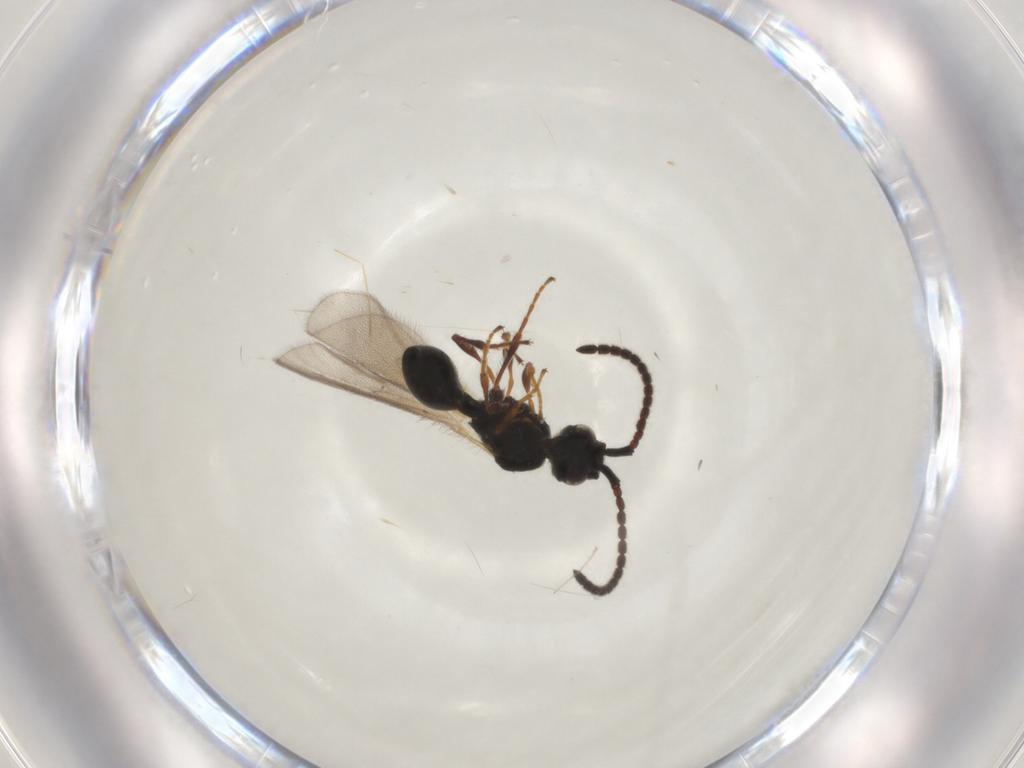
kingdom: Animalia
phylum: Arthropoda
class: Insecta
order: Hymenoptera
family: Diapriidae
